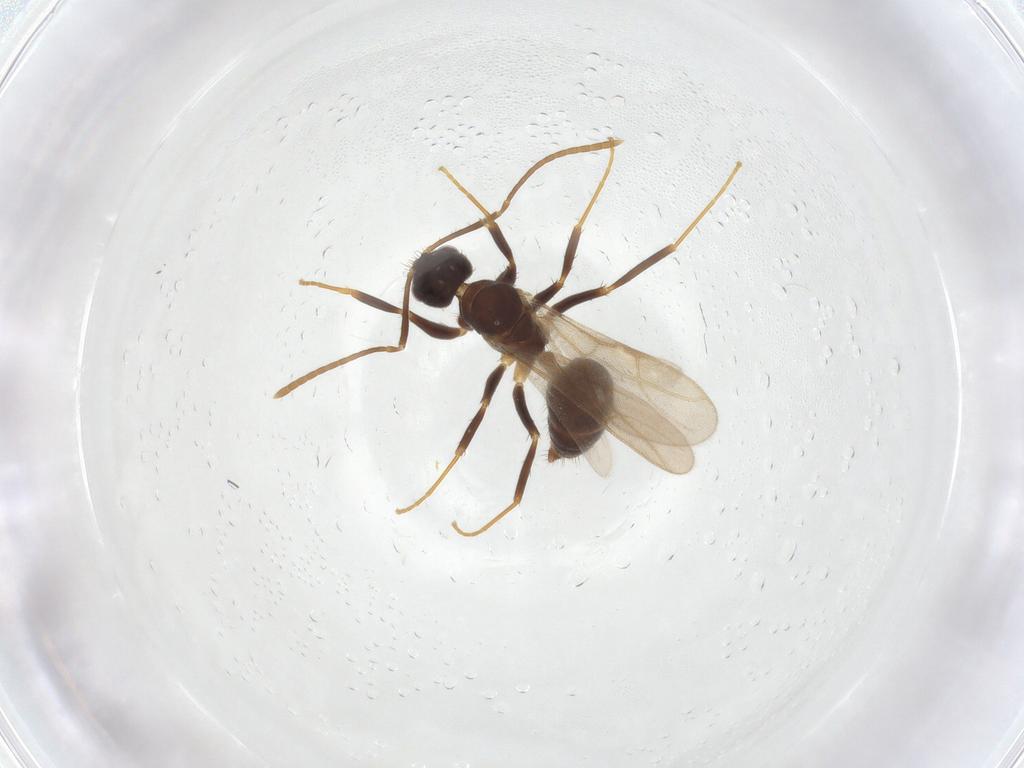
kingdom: Animalia
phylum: Arthropoda
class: Insecta
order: Hymenoptera
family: Formicidae
